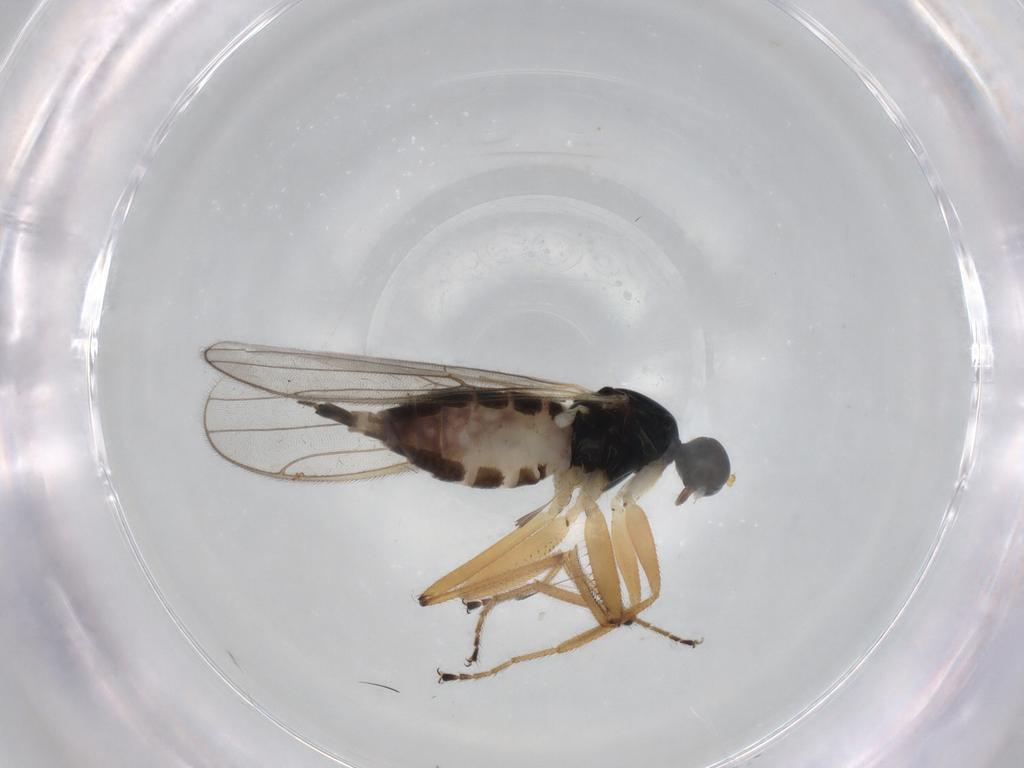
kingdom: Animalia
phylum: Arthropoda
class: Insecta
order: Diptera
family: Hybotidae
